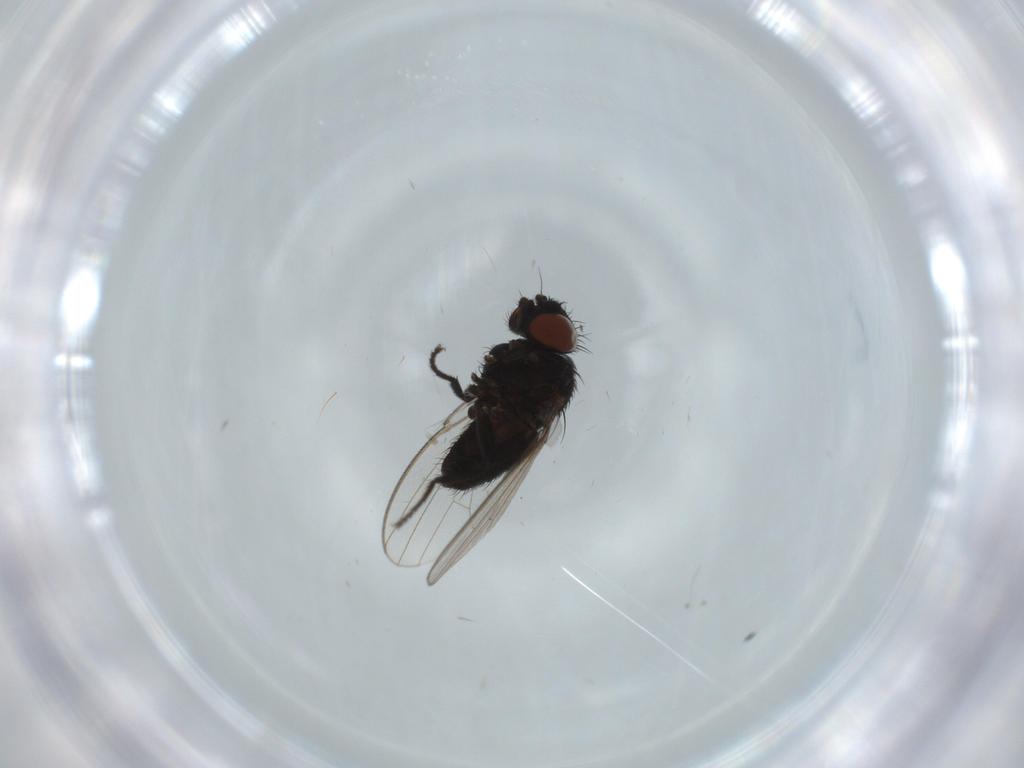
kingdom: Animalia
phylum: Arthropoda
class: Insecta
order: Diptera
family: Milichiidae
